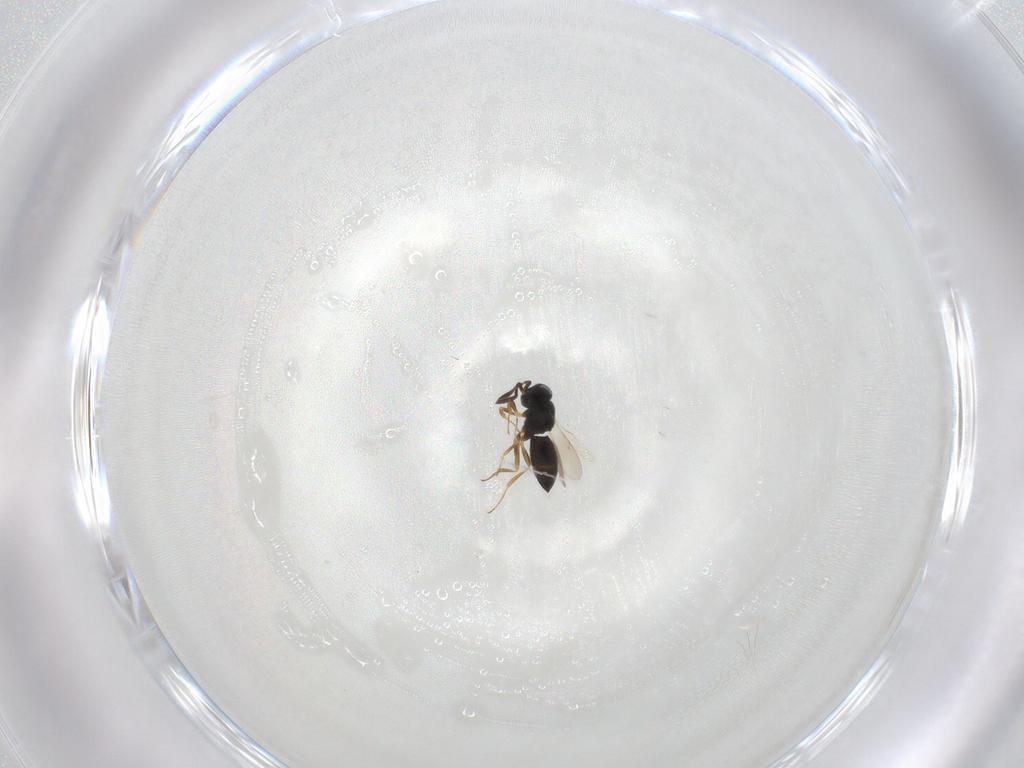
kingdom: Animalia
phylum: Arthropoda
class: Insecta
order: Hymenoptera
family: Scelionidae
